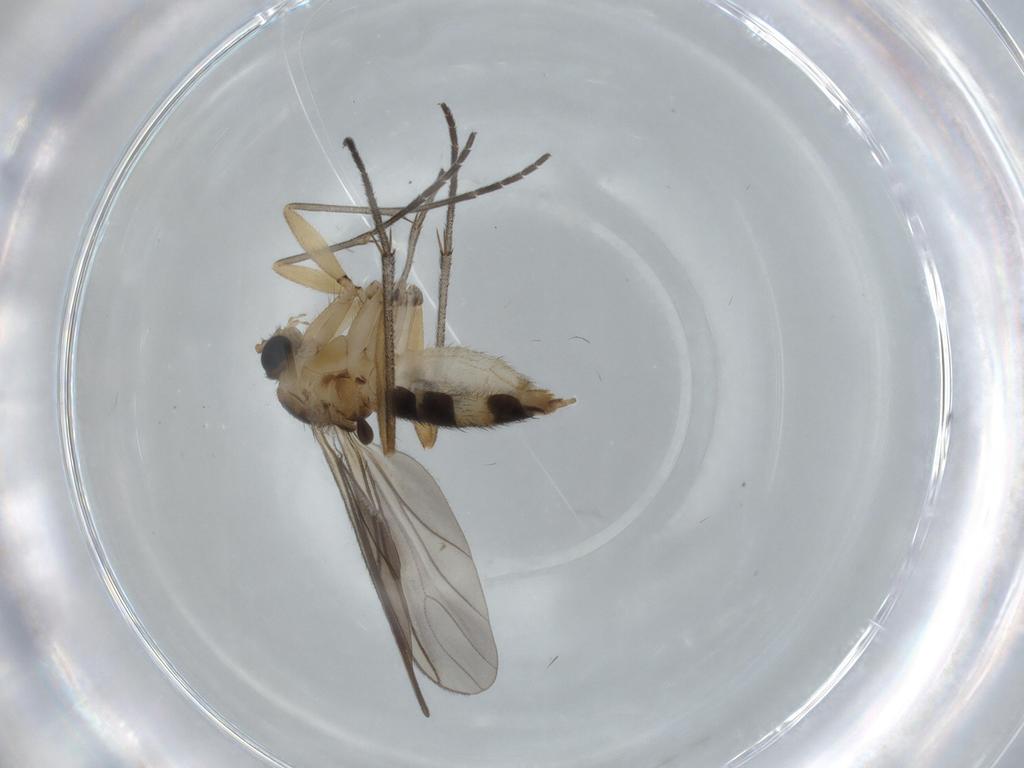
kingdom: Animalia
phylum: Arthropoda
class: Insecta
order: Diptera
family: Sciaridae
